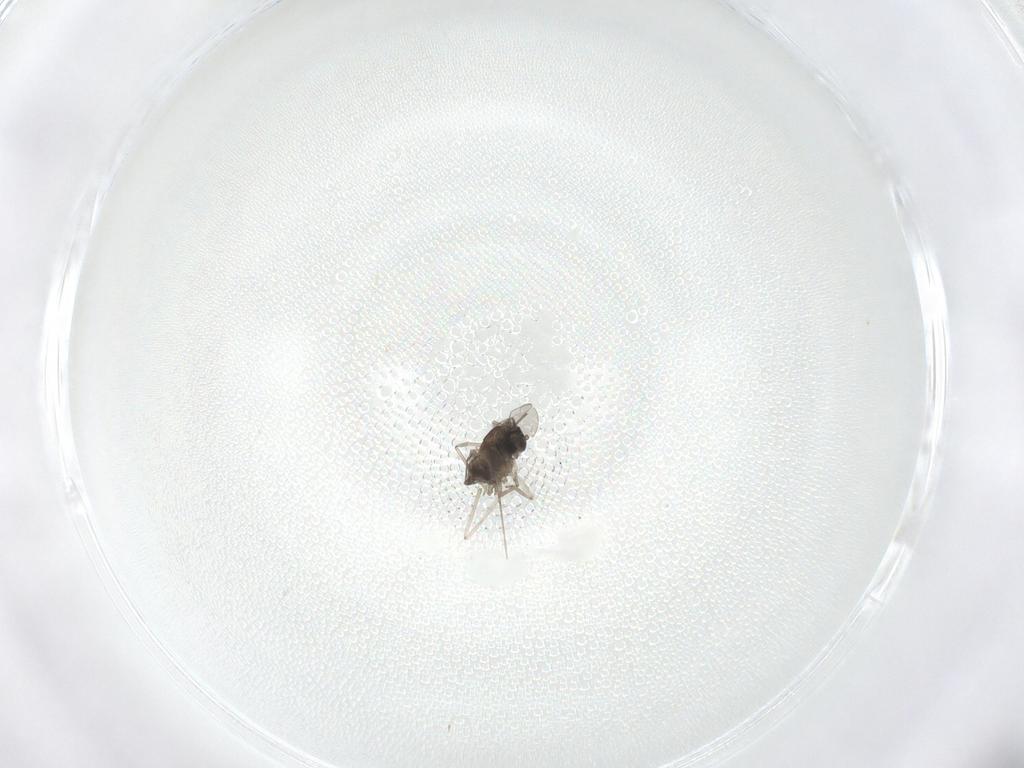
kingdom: Animalia
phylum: Arthropoda
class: Insecta
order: Diptera
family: Cecidomyiidae
